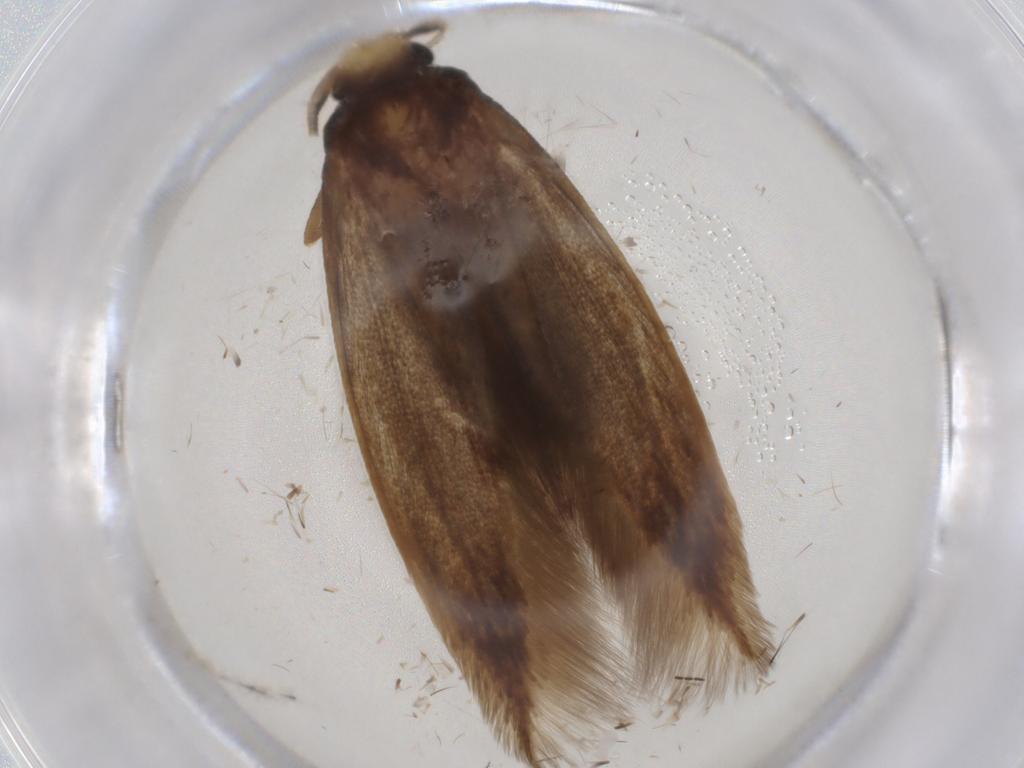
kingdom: Animalia
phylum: Arthropoda
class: Insecta
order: Lepidoptera
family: Tineidae
